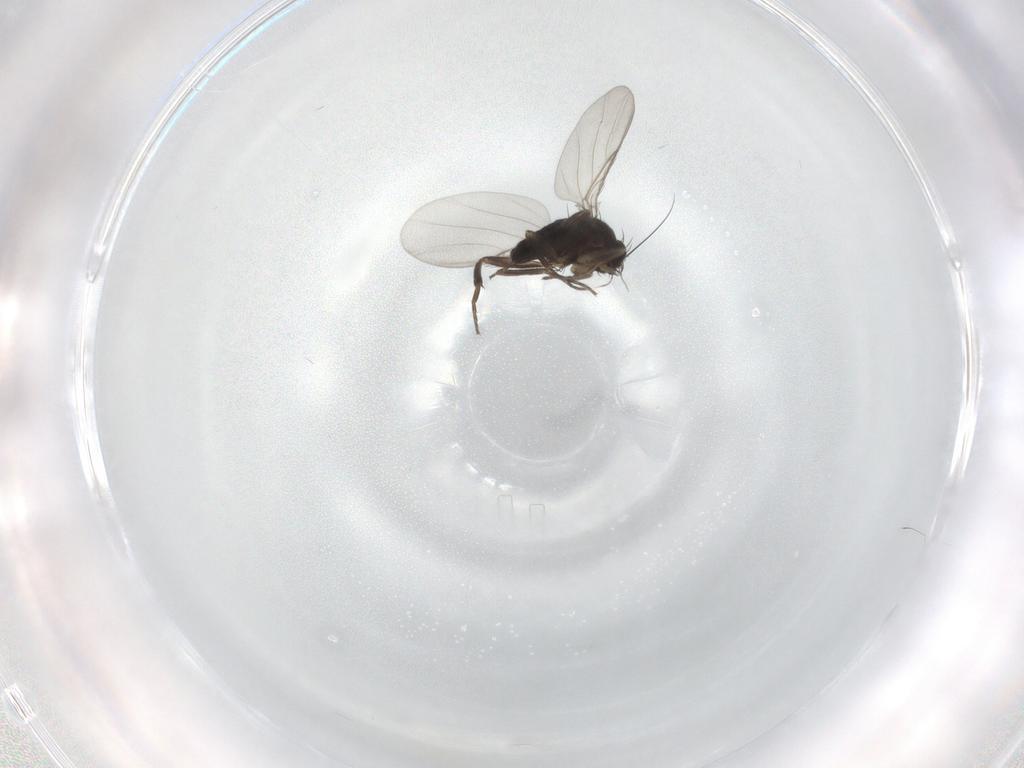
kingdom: Animalia
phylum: Arthropoda
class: Insecta
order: Diptera
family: Phoridae
